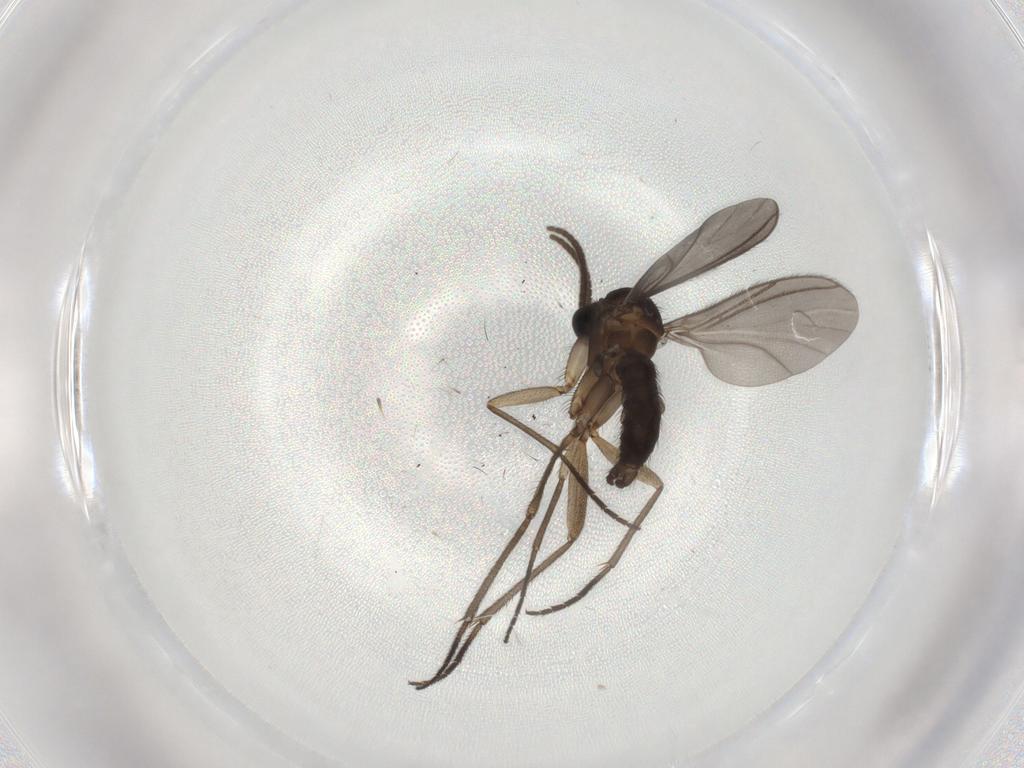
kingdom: Animalia
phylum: Arthropoda
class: Insecta
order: Diptera
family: Sciaridae
